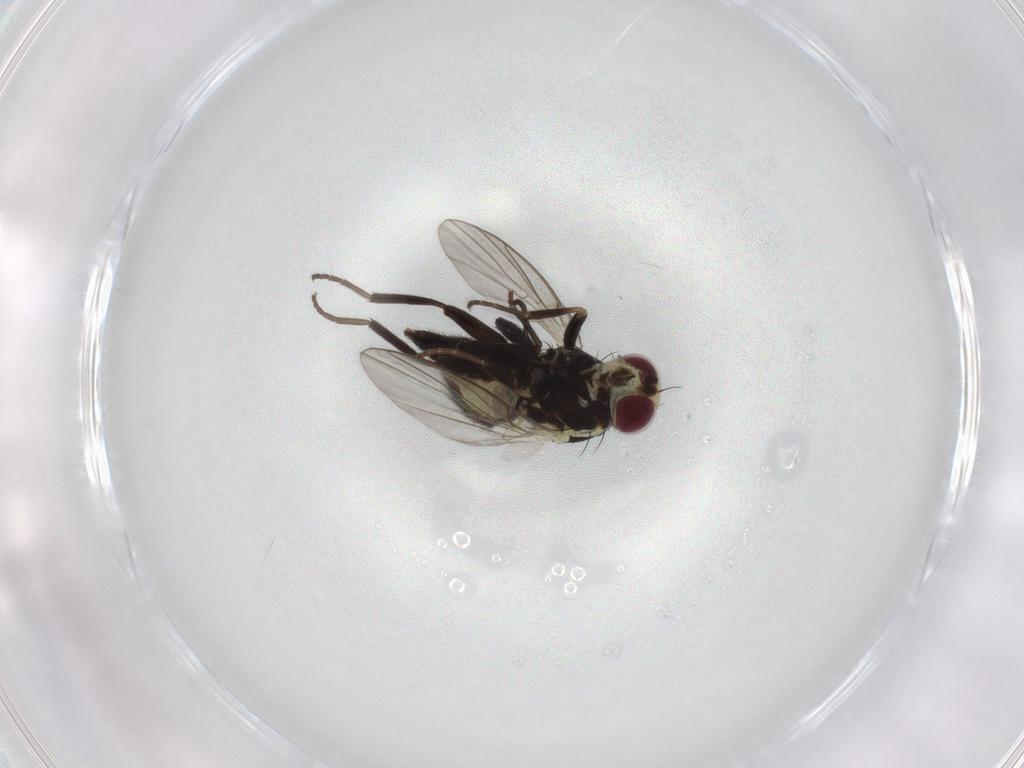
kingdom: Animalia
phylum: Arthropoda
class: Insecta
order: Diptera
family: Agromyzidae
